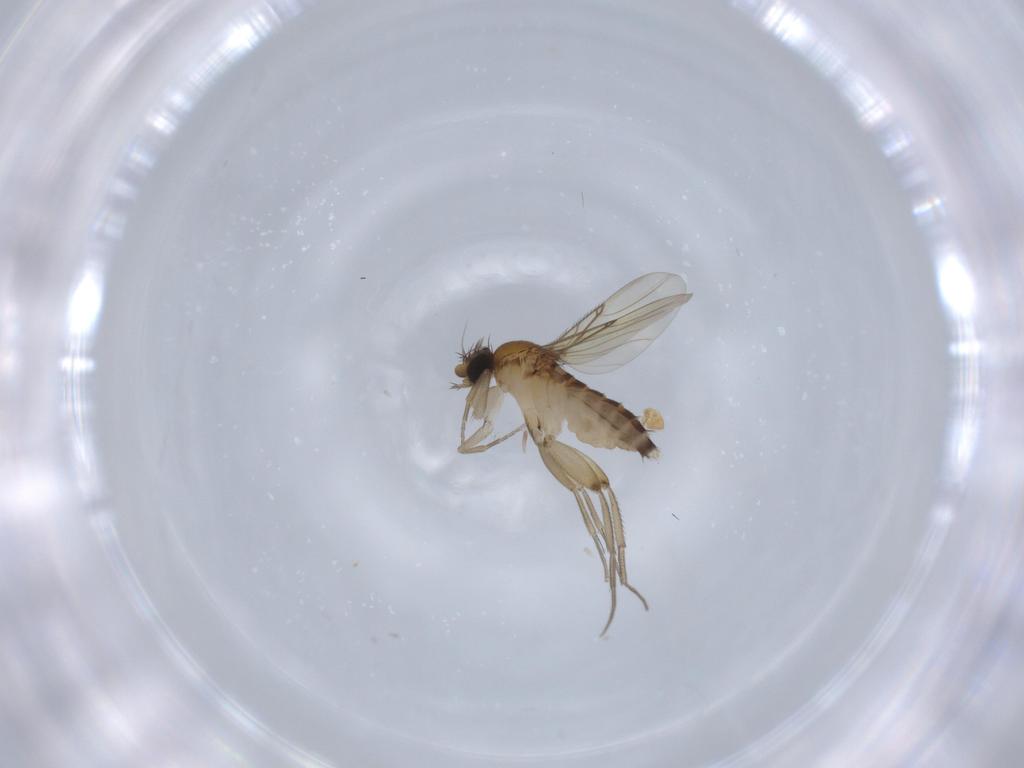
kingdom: Animalia
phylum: Arthropoda
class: Insecta
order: Diptera
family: Phoridae
